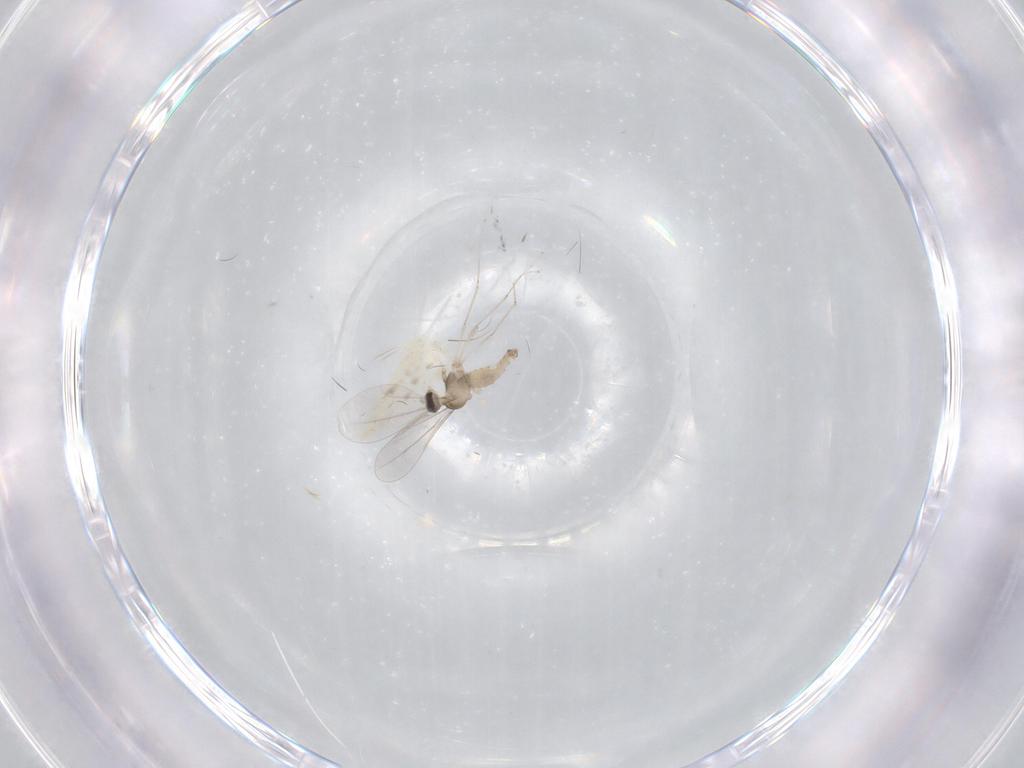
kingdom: Animalia
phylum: Arthropoda
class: Insecta
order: Diptera
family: Cecidomyiidae
